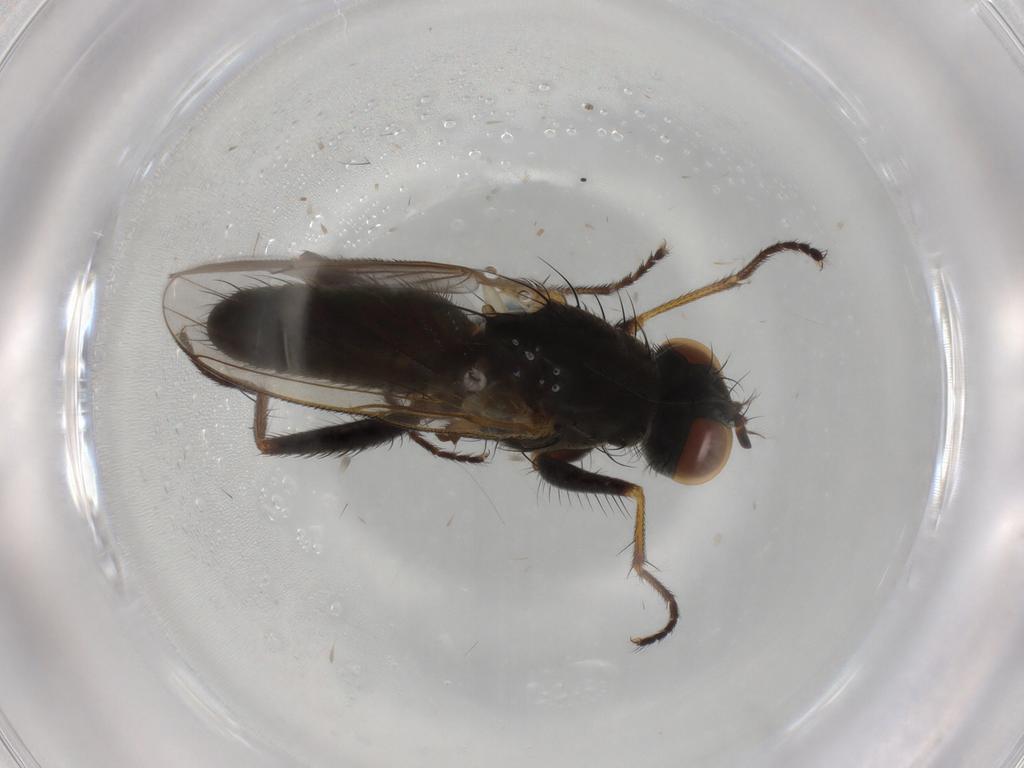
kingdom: Animalia
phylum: Arthropoda
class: Insecta
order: Diptera
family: Muscidae
